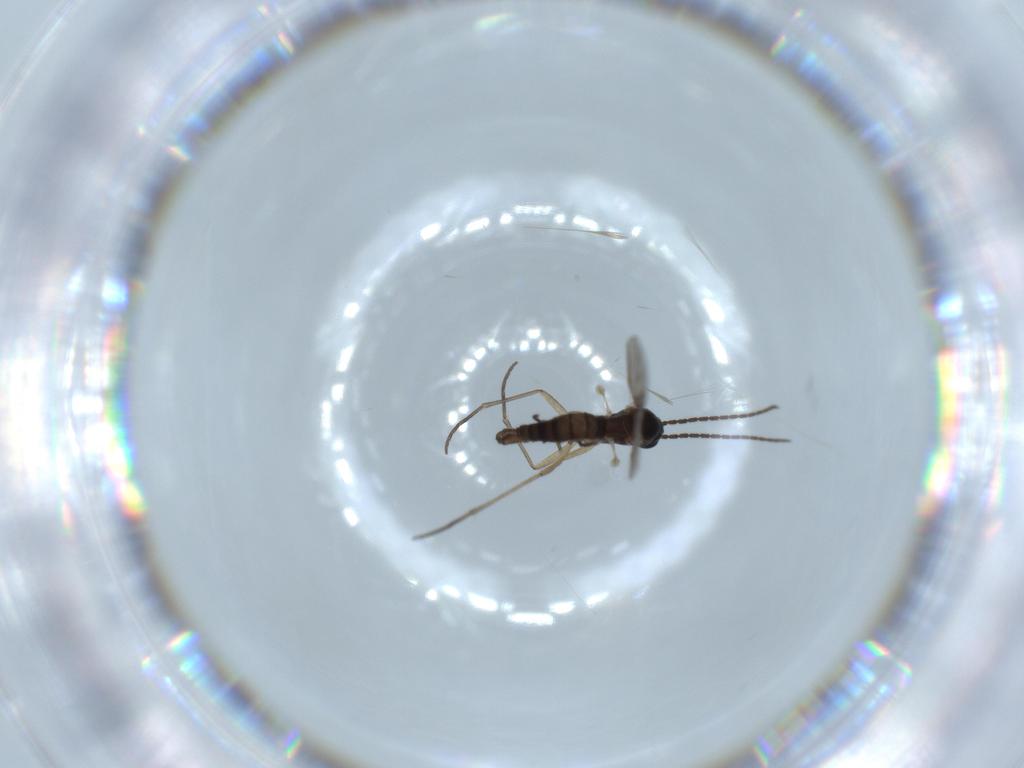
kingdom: Animalia
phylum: Arthropoda
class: Insecta
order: Diptera
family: Sciaridae
